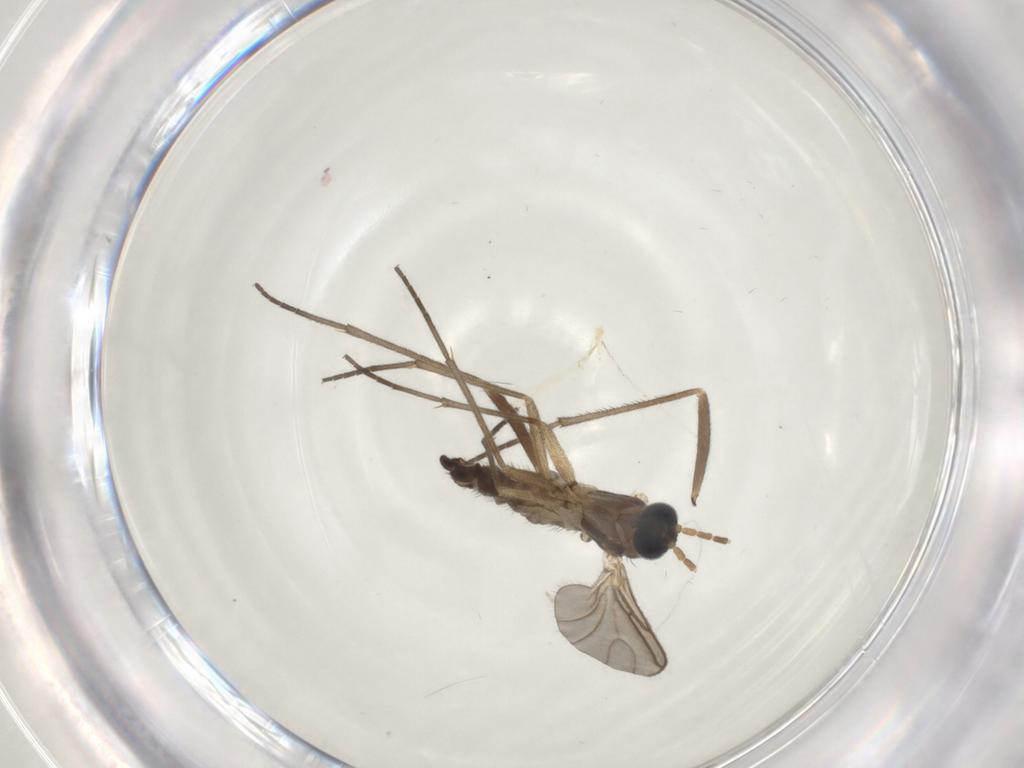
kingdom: Animalia
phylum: Arthropoda
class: Insecta
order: Diptera
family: Sciaridae
